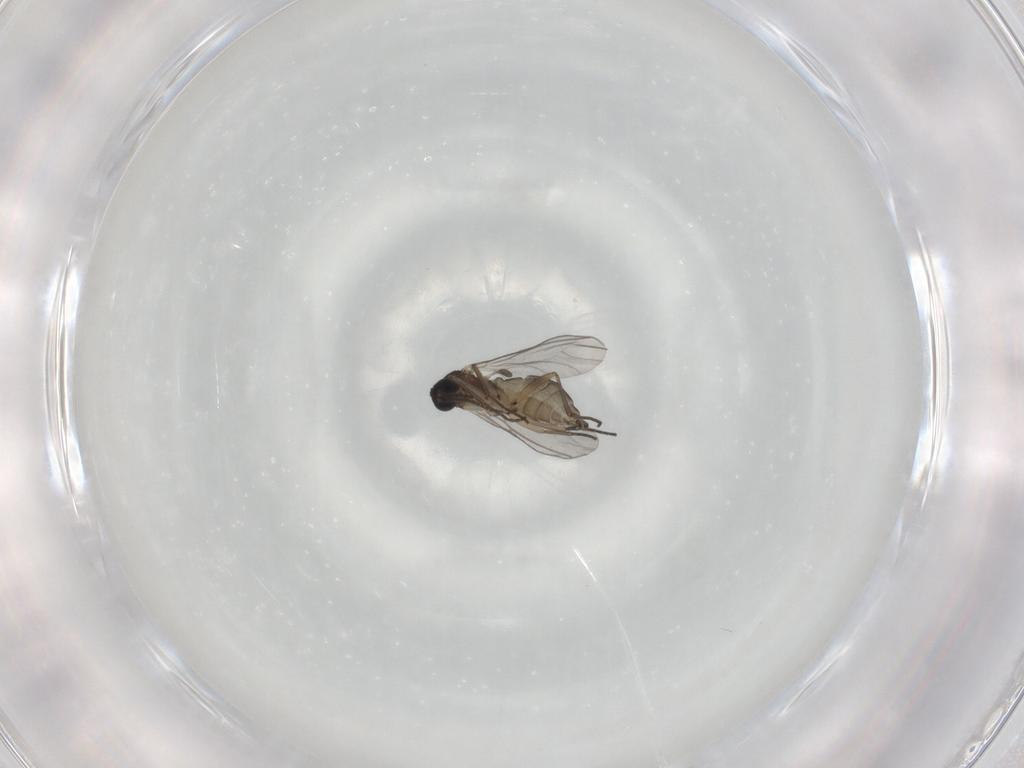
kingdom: Animalia
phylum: Arthropoda
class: Insecta
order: Diptera
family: Sciaridae
